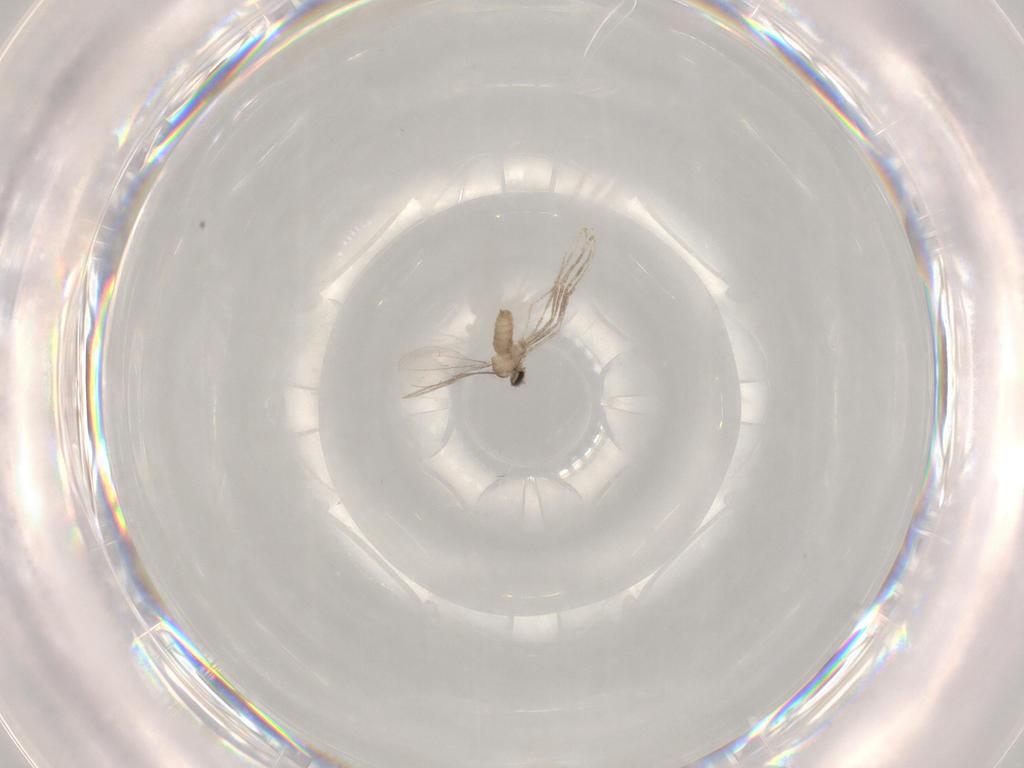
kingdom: Animalia
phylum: Arthropoda
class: Insecta
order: Diptera
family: Cecidomyiidae
